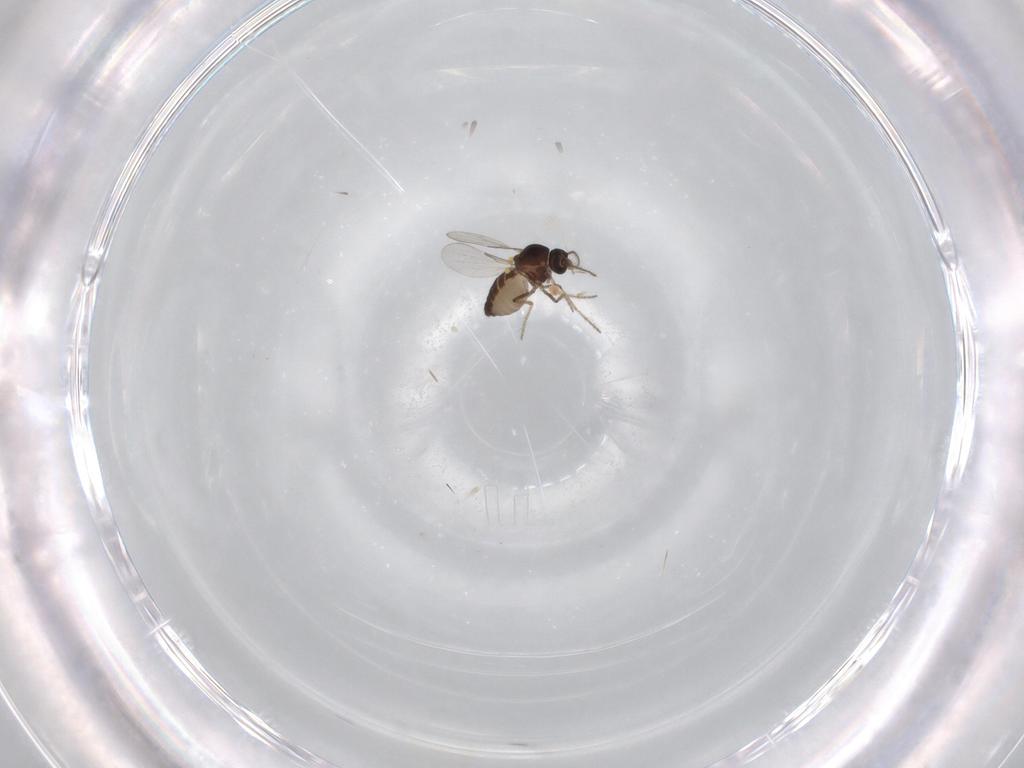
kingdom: Animalia
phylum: Arthropoda
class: Insecta
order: Diptera
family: Ceratopogonidae
